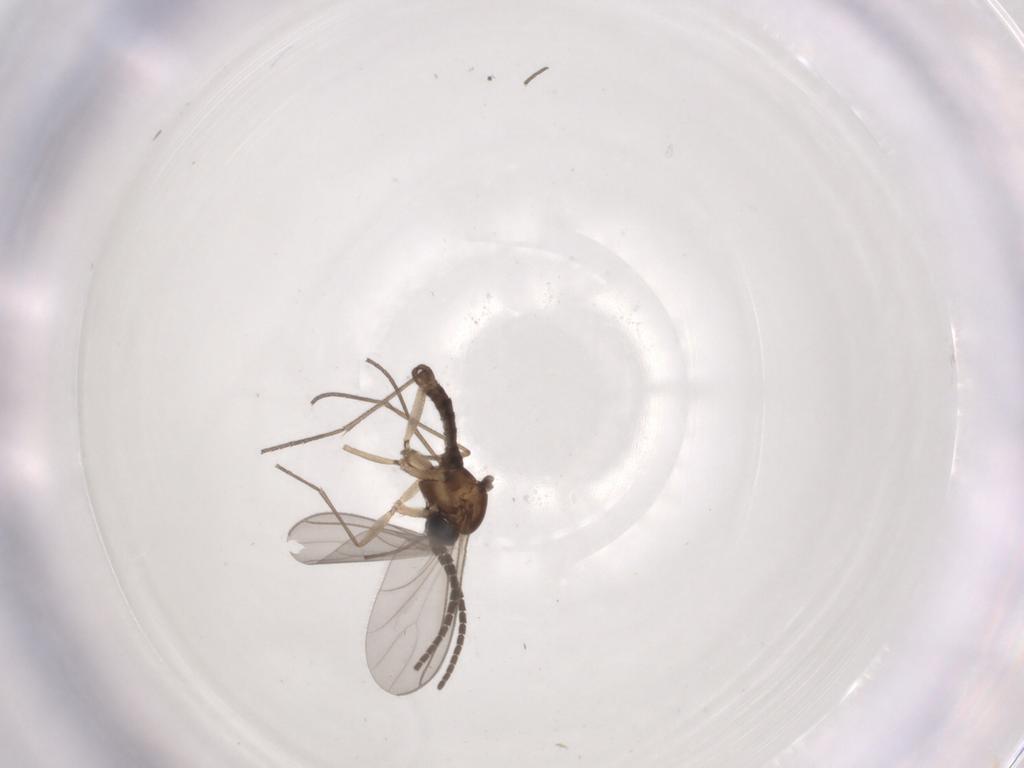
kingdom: Animalia
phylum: Arthropoda
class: Insecta
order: Diptera
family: Sciaridae
